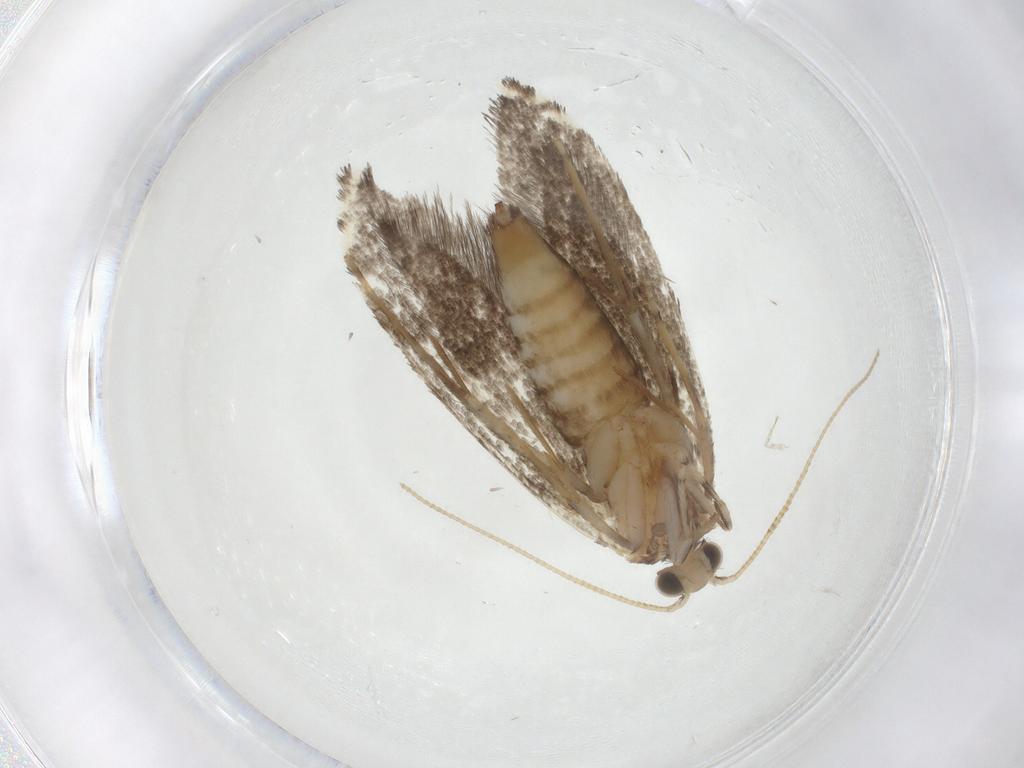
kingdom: Animalia
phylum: Arthropoda
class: Insecta
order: Lepidoptera
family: Tineidae
